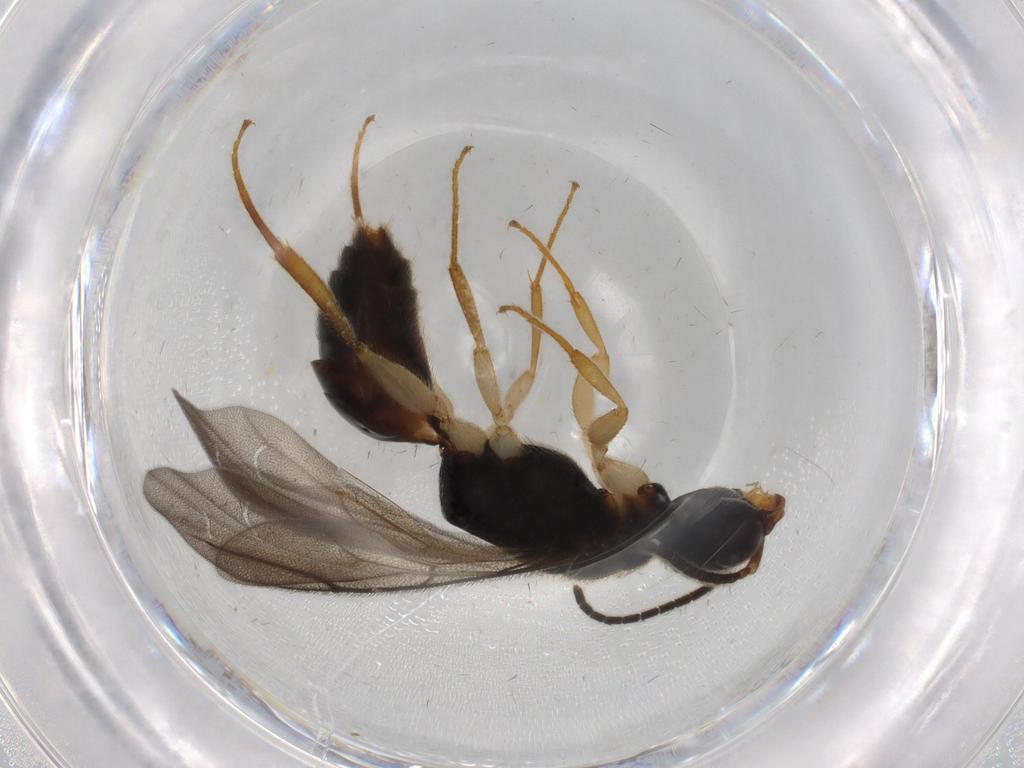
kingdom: Animalia
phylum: Arthropoda
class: Insecta
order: Hymenoptera
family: Bethylidae
